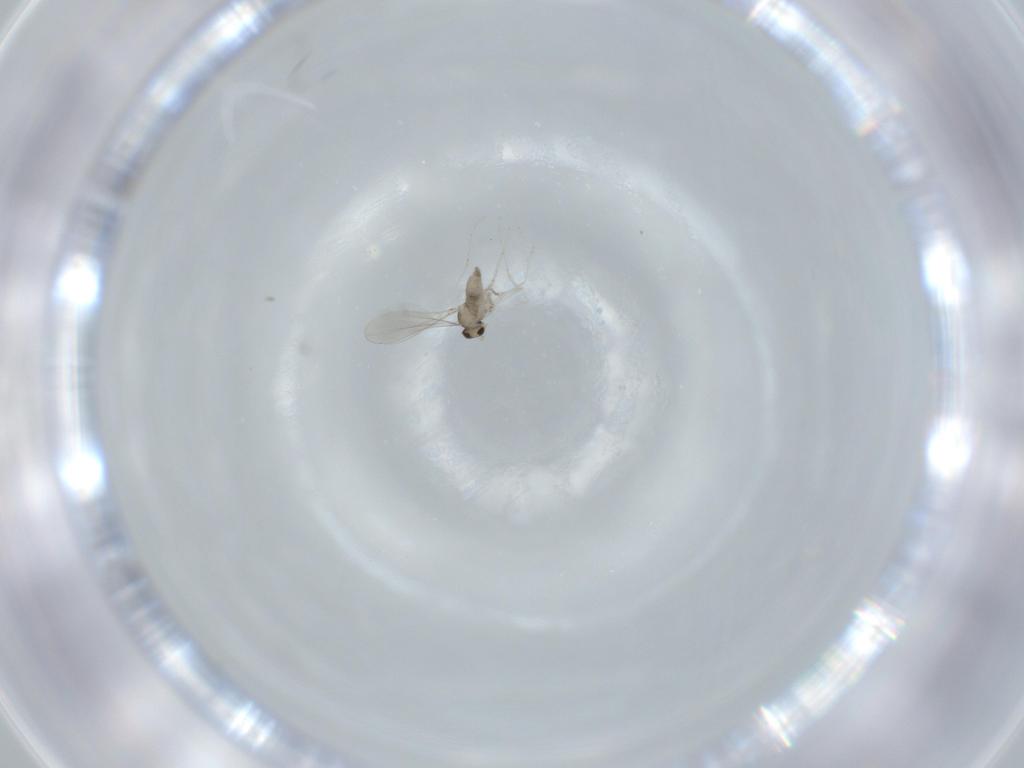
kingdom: Animalia
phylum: Arthropoda
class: Insecta
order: Diptera
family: Cecidomyiidae
